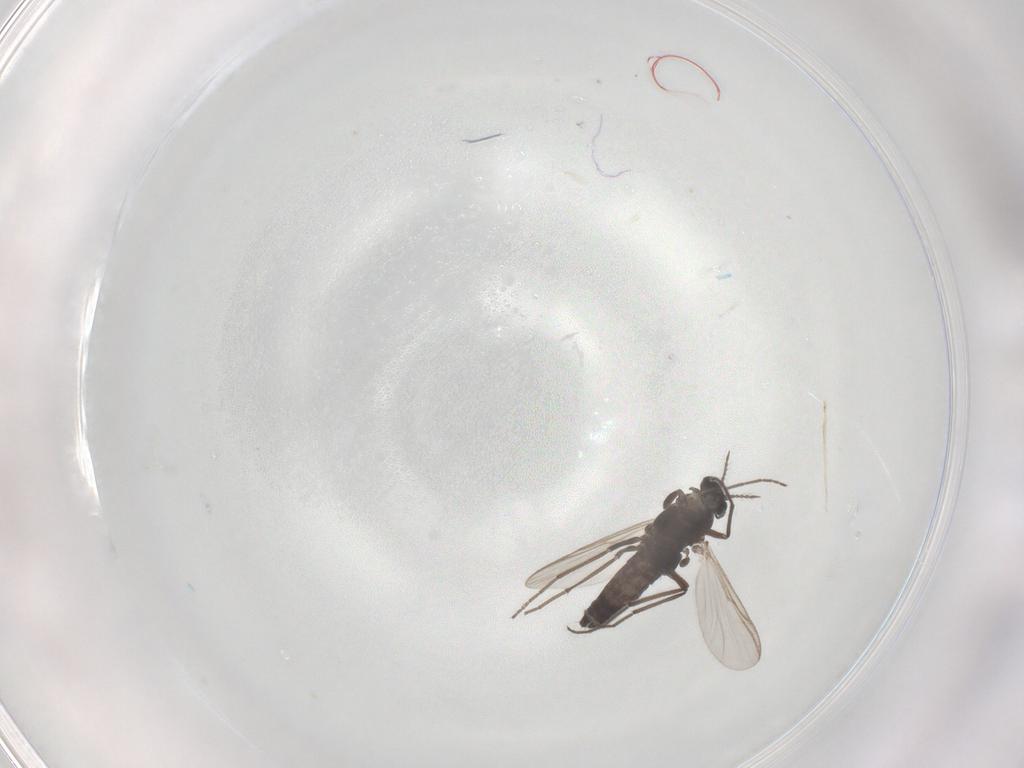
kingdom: Animalia
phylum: Arthropoda
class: Insecta
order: Diptera
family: Chironomidae
